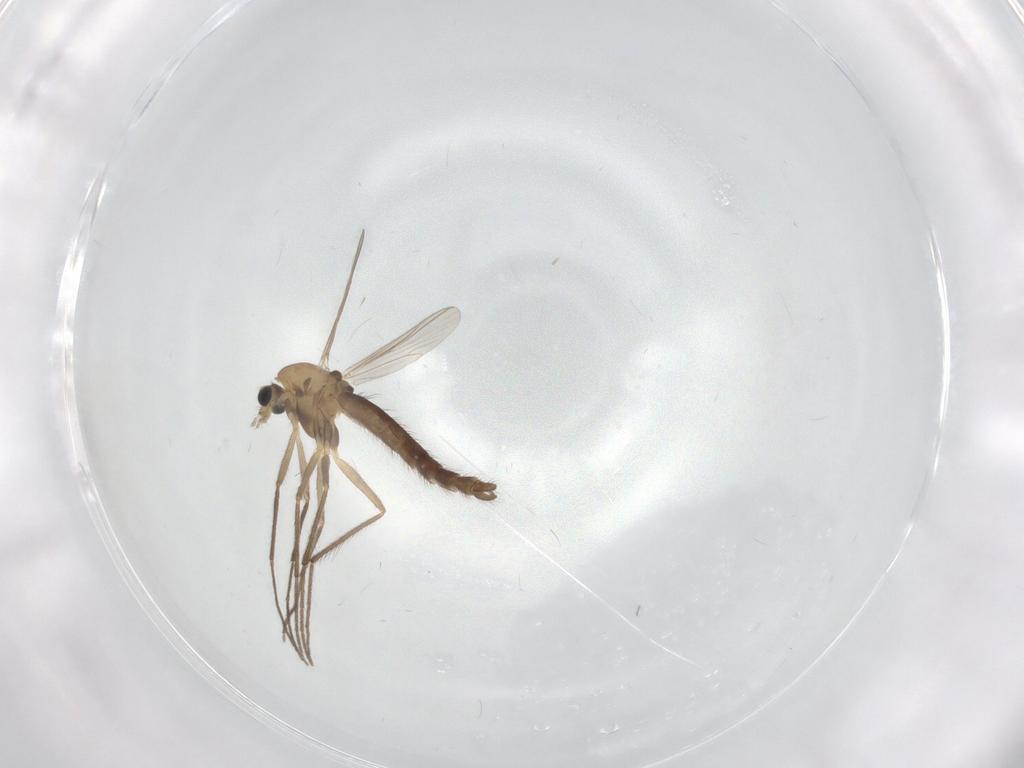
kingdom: Animalia
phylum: Arthropoda
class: Insecta
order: Diptera
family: Chironomidae
